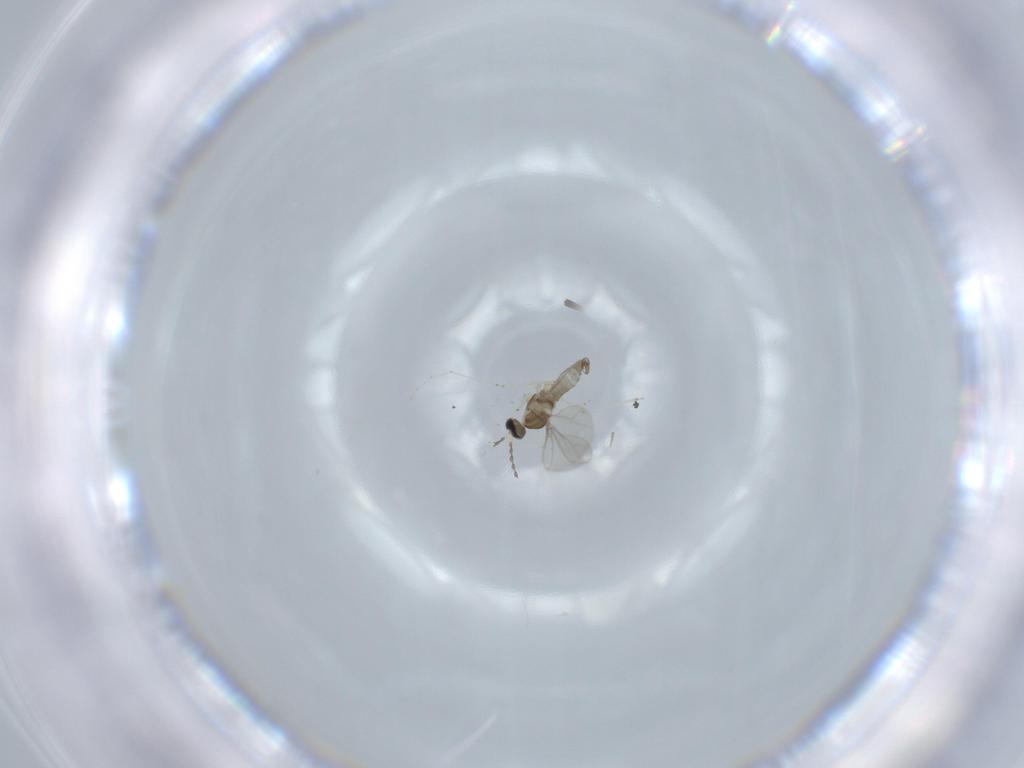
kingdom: Animalia
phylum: Arthropoda
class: Insecta
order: Diptera
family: Cecidomyiidae
